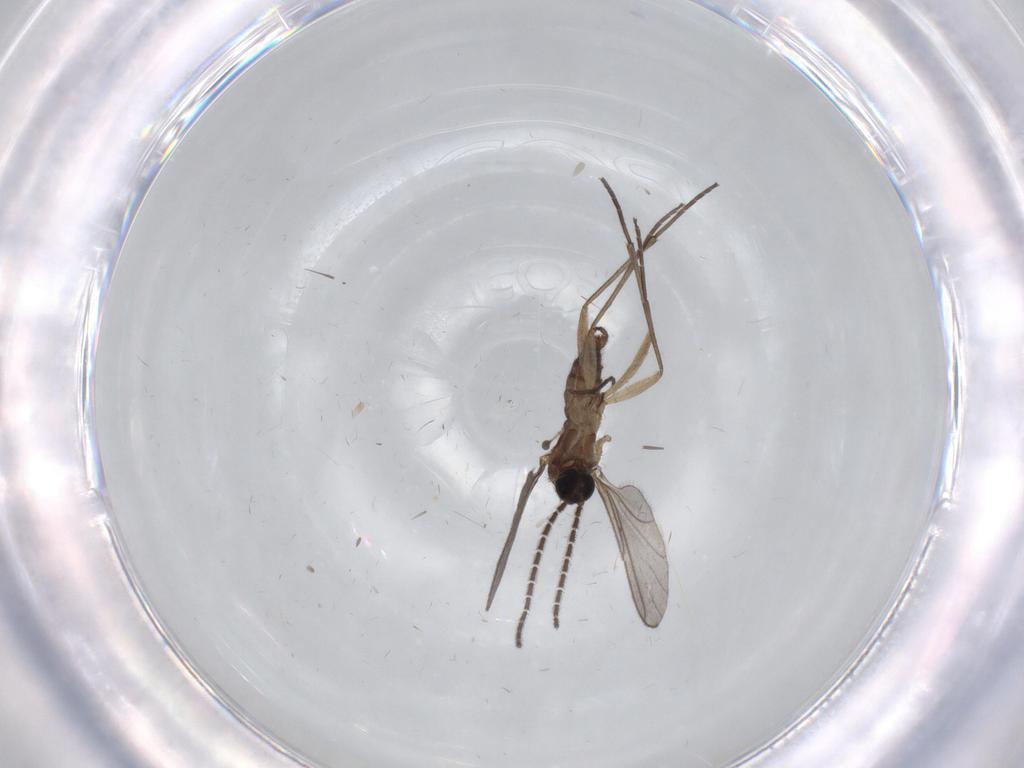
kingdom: Animalia
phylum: Arthropoda
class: Insecta
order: Diptera
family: Sciaridae
